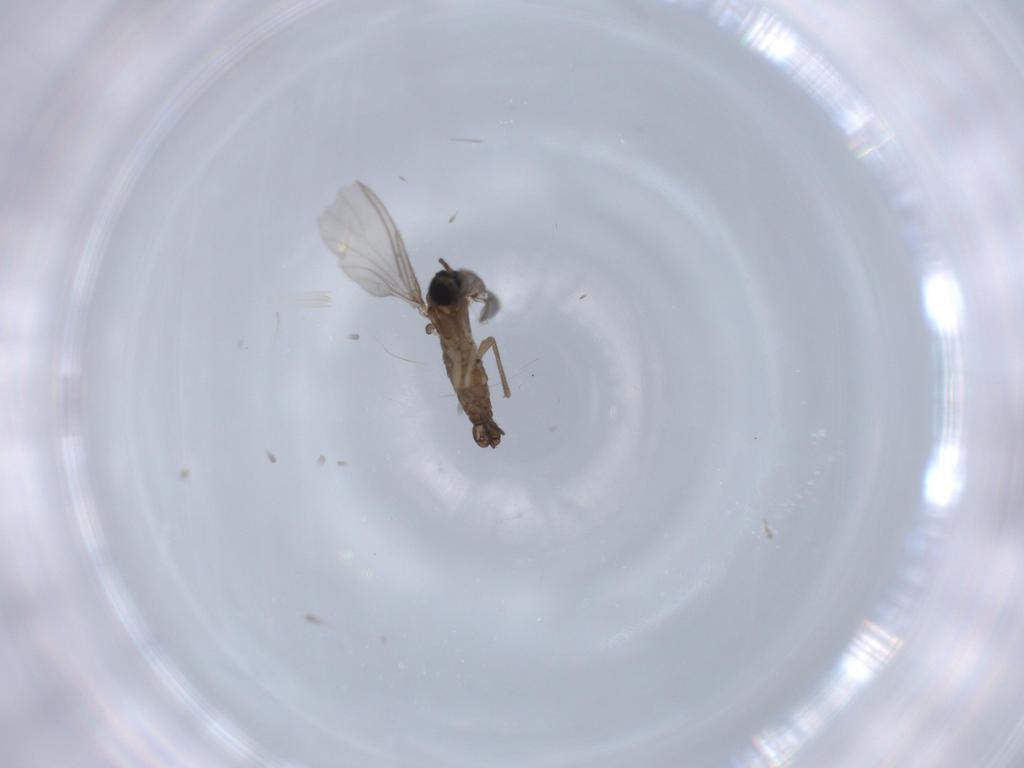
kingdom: Animalia
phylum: Arthropoda
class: Insecta
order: Diptera
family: Sciaridae
